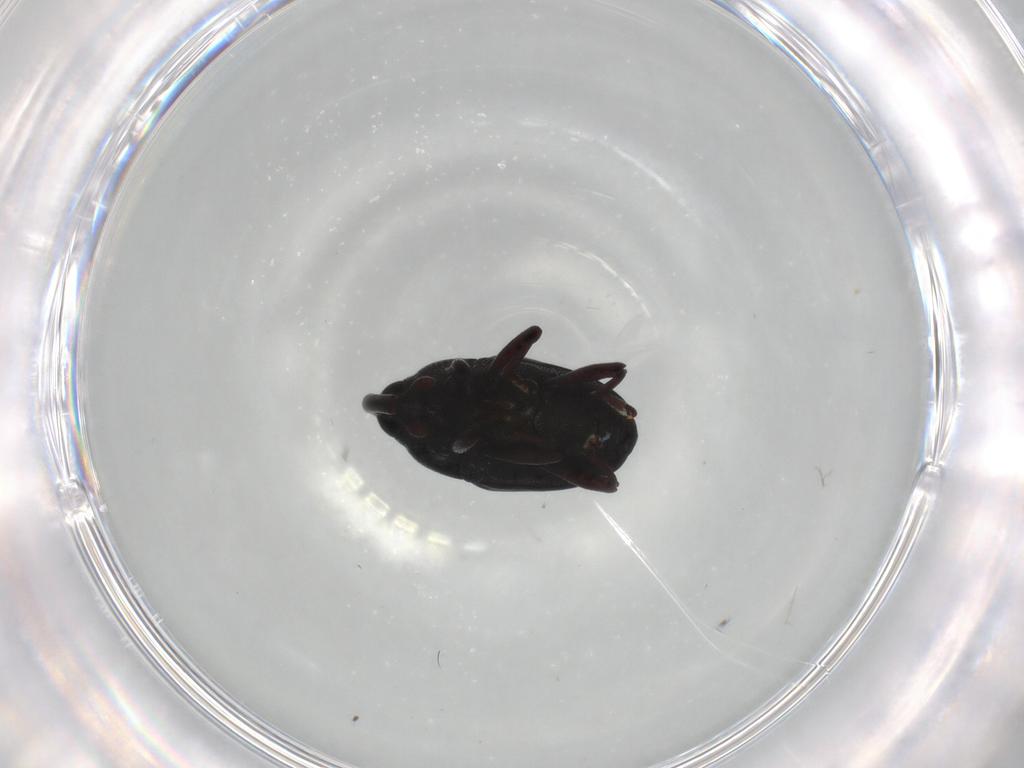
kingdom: Animalia
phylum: Arthropoda
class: Insecta
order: Coleoptera
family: Curculionidae
